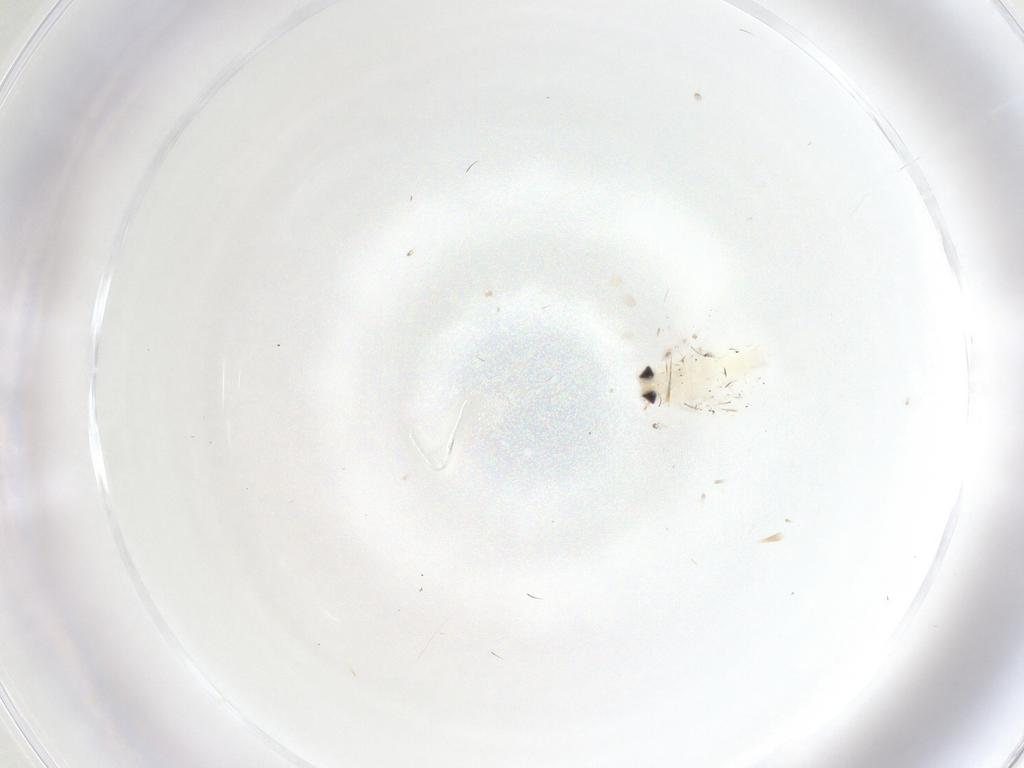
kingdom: Animalia
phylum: Arthropoda
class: Insecta
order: Lepidoptera
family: Gelechiidae
